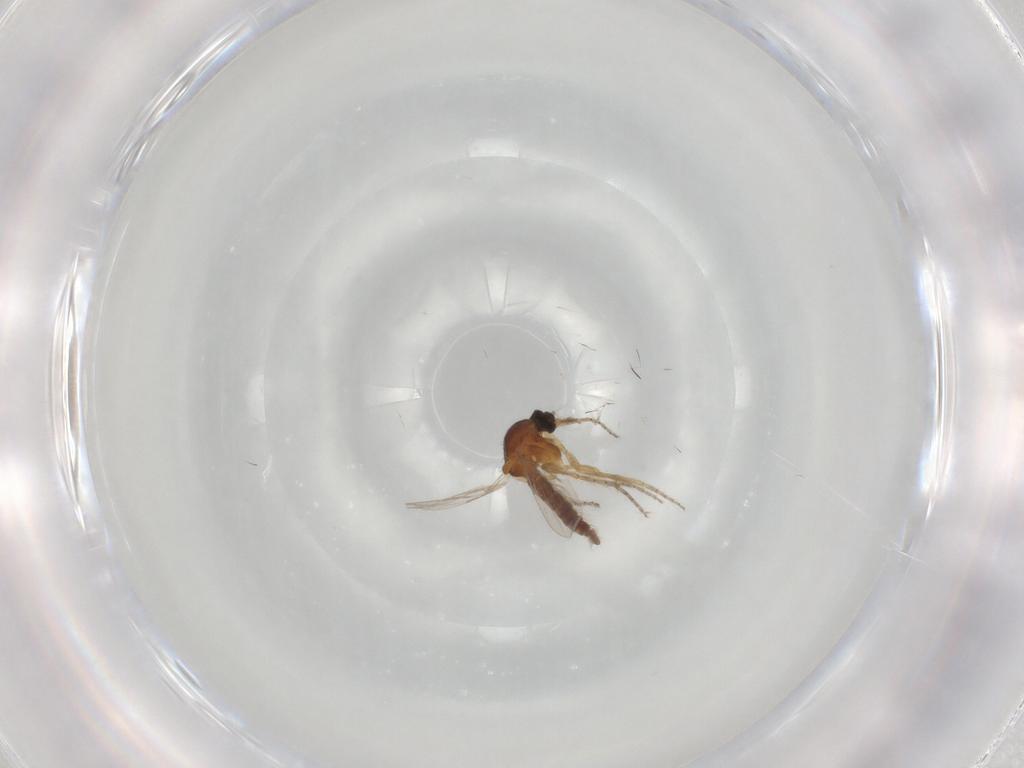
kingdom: Animalia
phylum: Arthropoda
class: Insecta
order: Diptera
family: Ceratopogonidae
